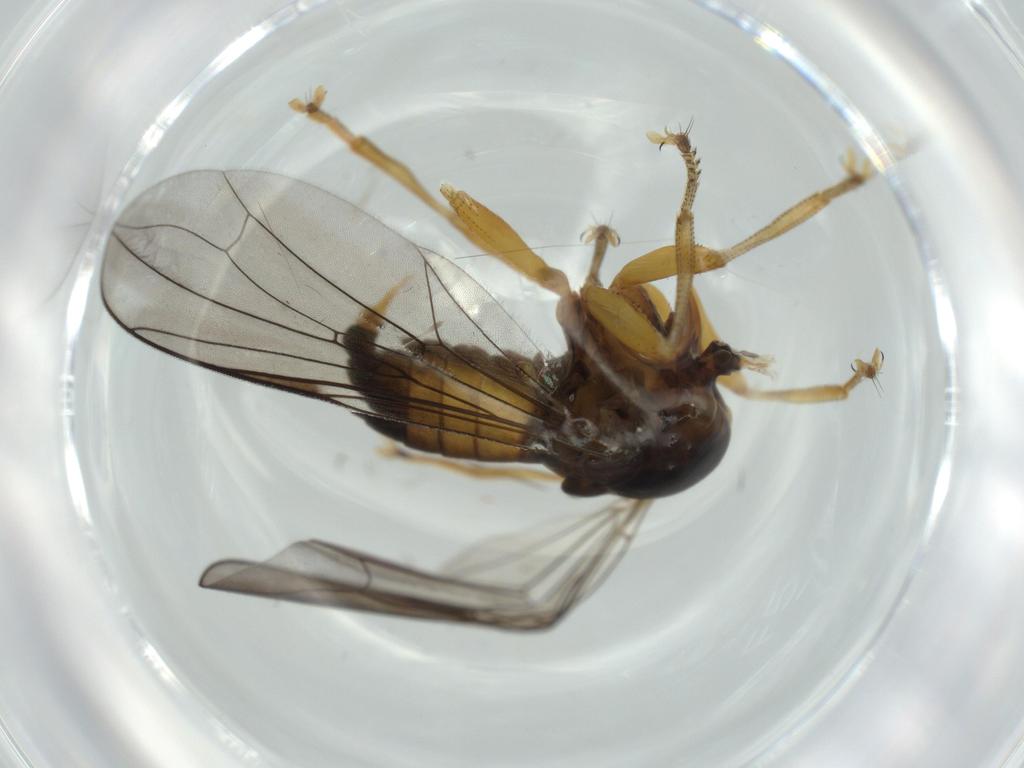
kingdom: Animalia
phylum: Arthropoda
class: Insecta
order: Diptera
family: Pipunculidae
